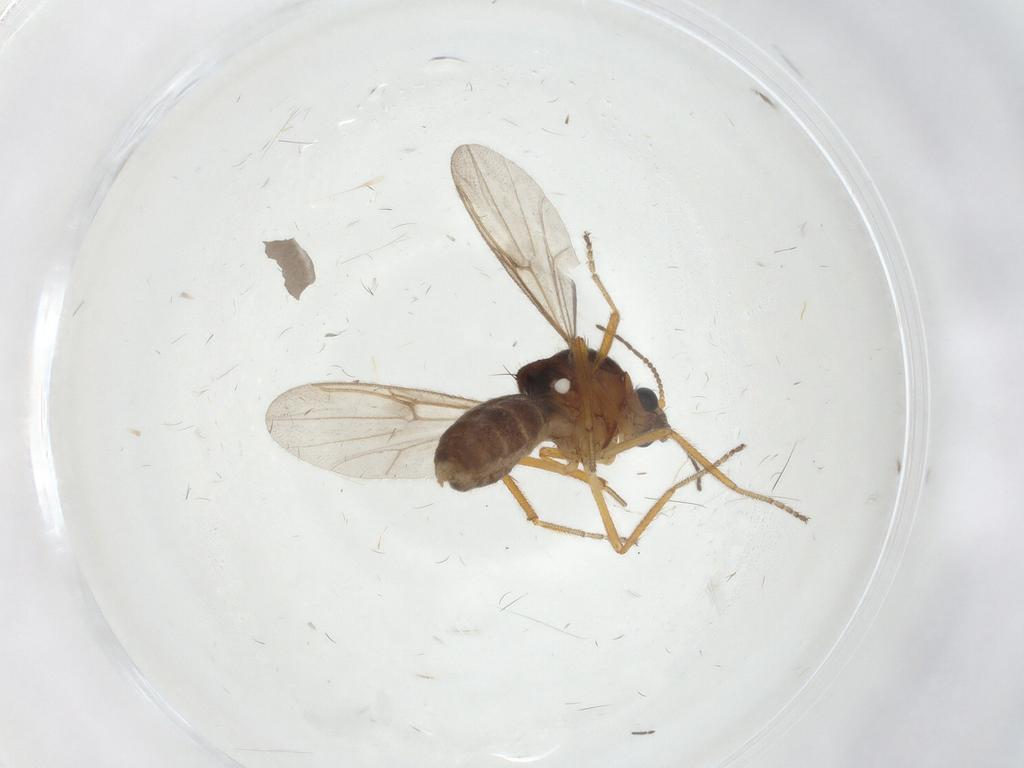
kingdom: Animalia
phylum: Arthropoda
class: Insecta
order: Diptera
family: Ceratopogonidae
